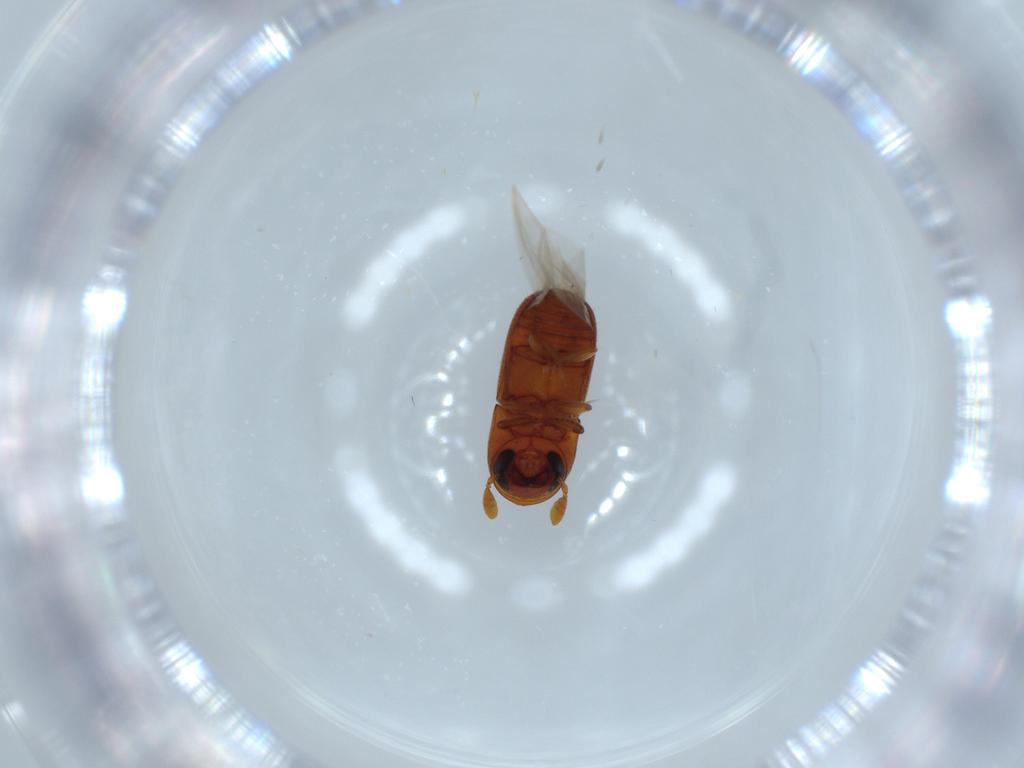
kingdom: Animalia
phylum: Arthropoda
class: Insecta
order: Coleoptera
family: Curculionidae
